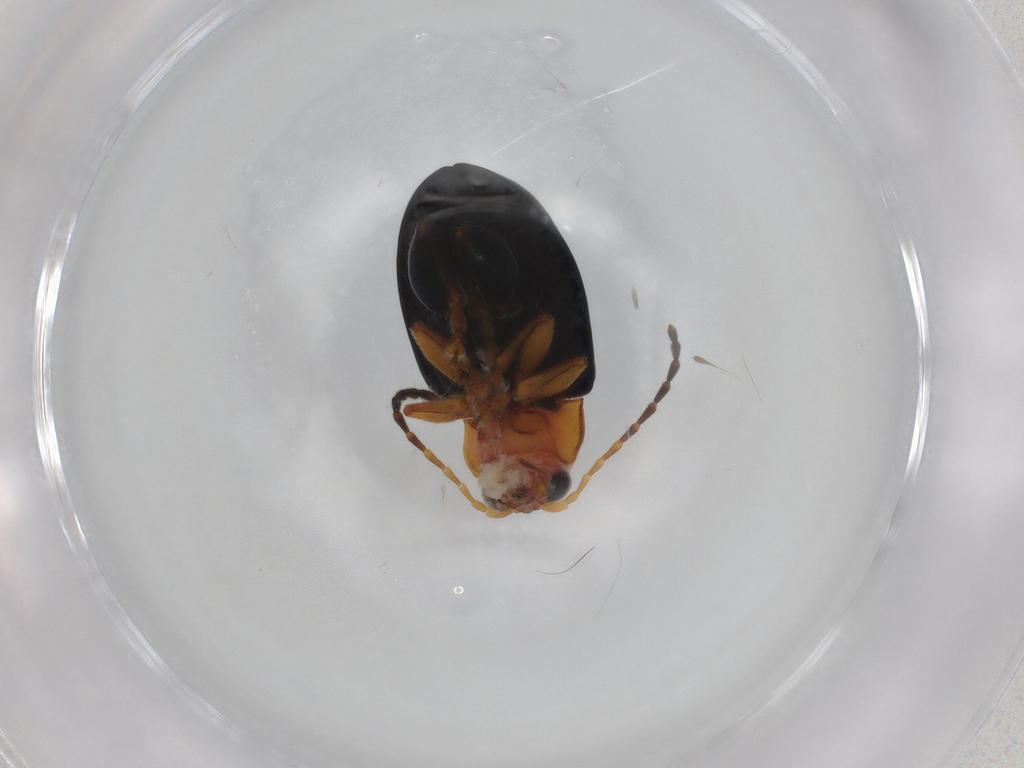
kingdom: Animalia
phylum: Arthropoda
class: Insecta
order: Coleoptera
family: Chrysomelidae
